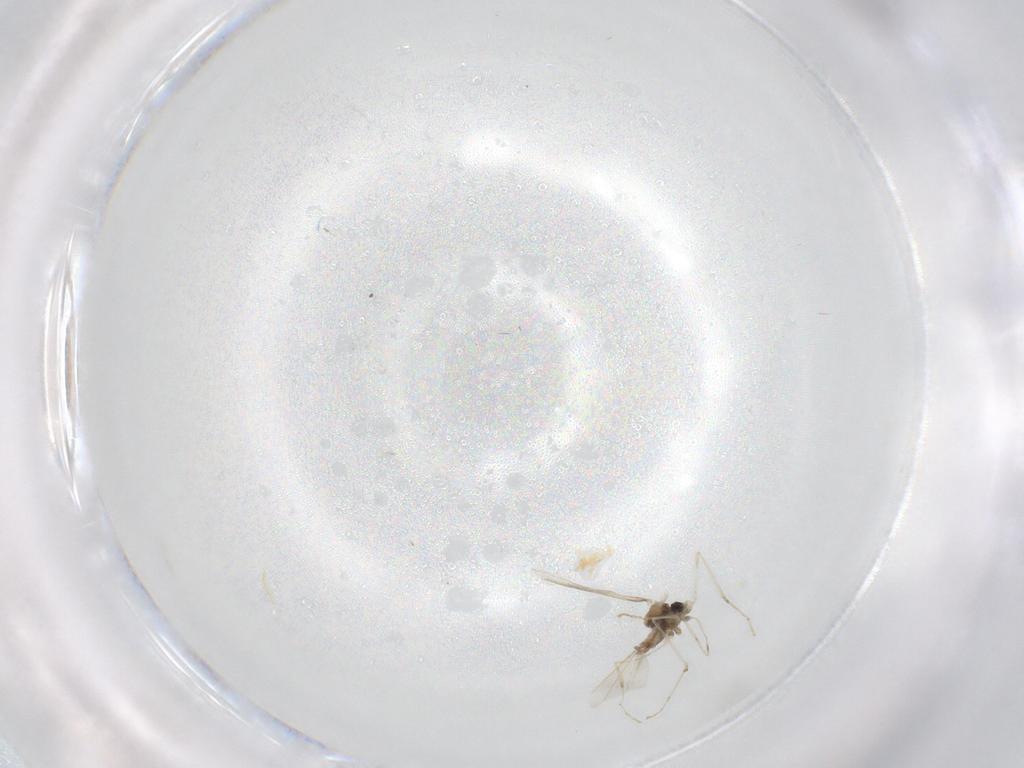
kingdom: Animalia
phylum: Arthropoda
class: Insecta
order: Diptera
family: Cecidomyiidae
